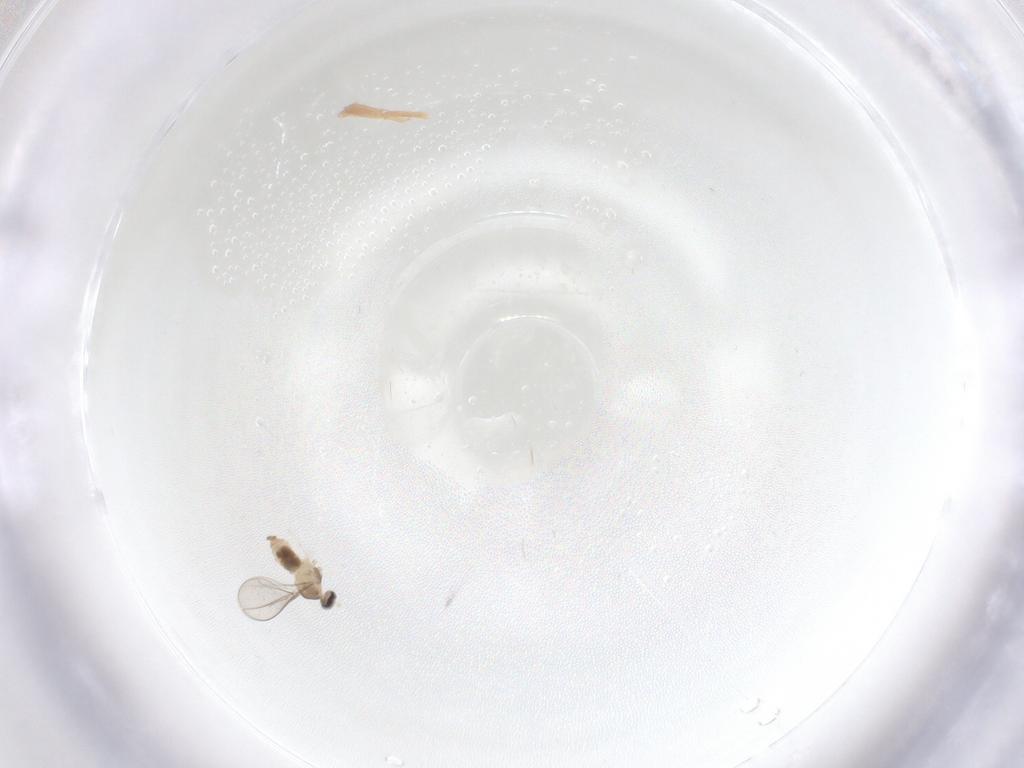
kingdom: Animalia
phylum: Arthropoda
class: Insecta
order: Diptera
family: Cecidomyiidae
